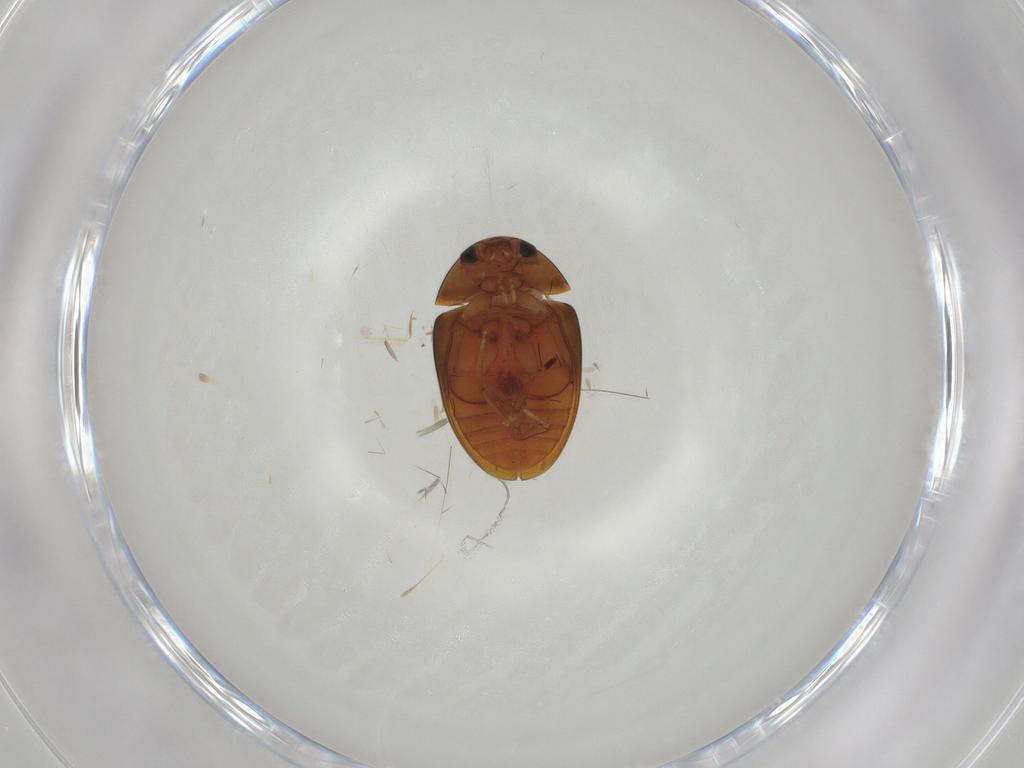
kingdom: Animalia
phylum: Arthropoda
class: Insecta
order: Coleoptera
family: Phalacridae
